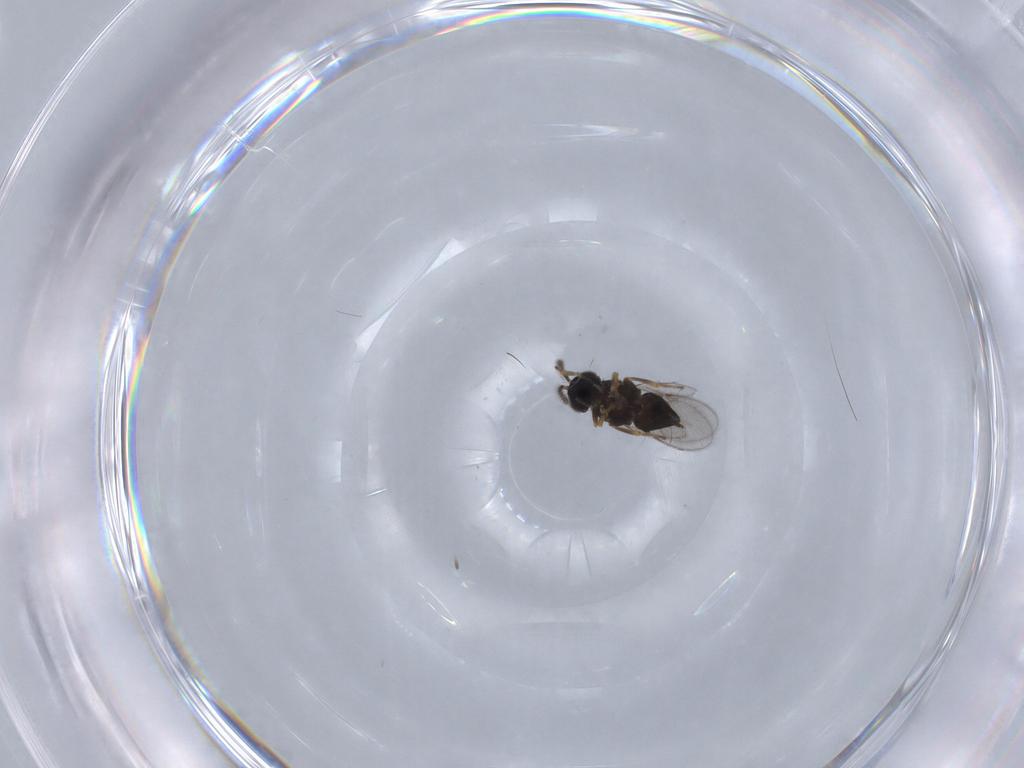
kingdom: Animalia
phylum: Arthropoda
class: Insecta
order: Hymenoptera
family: Encyrtidae
